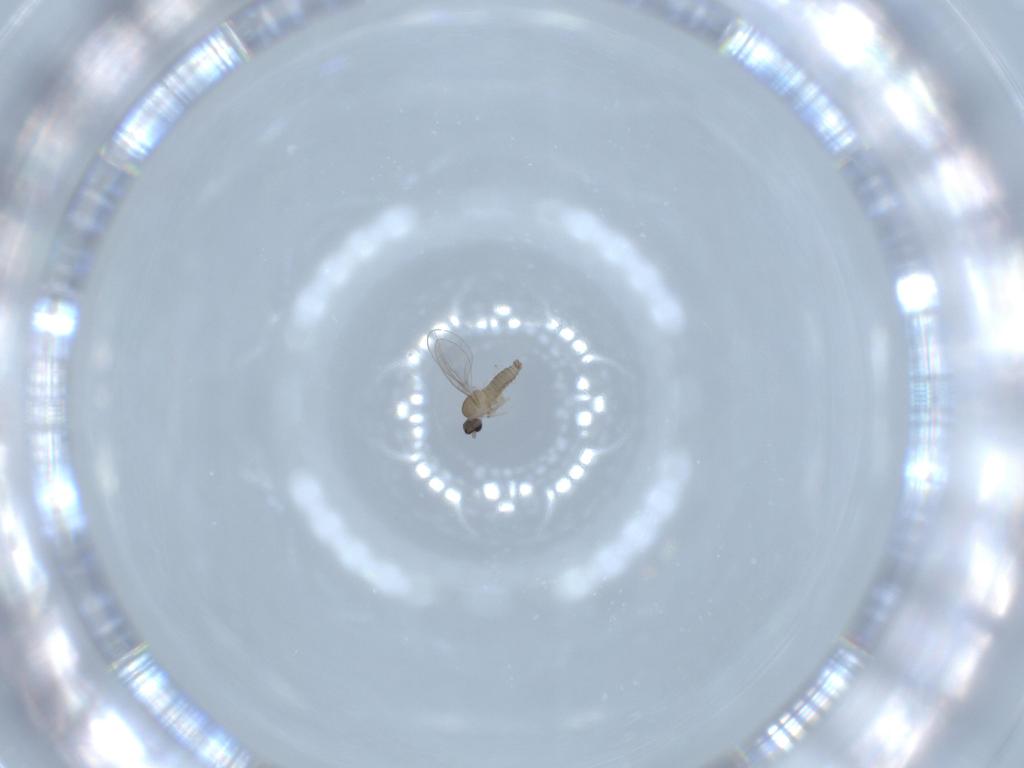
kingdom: Animalia
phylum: Arthropoda
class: Insecta
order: Diptera
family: Cecidomyiidae
